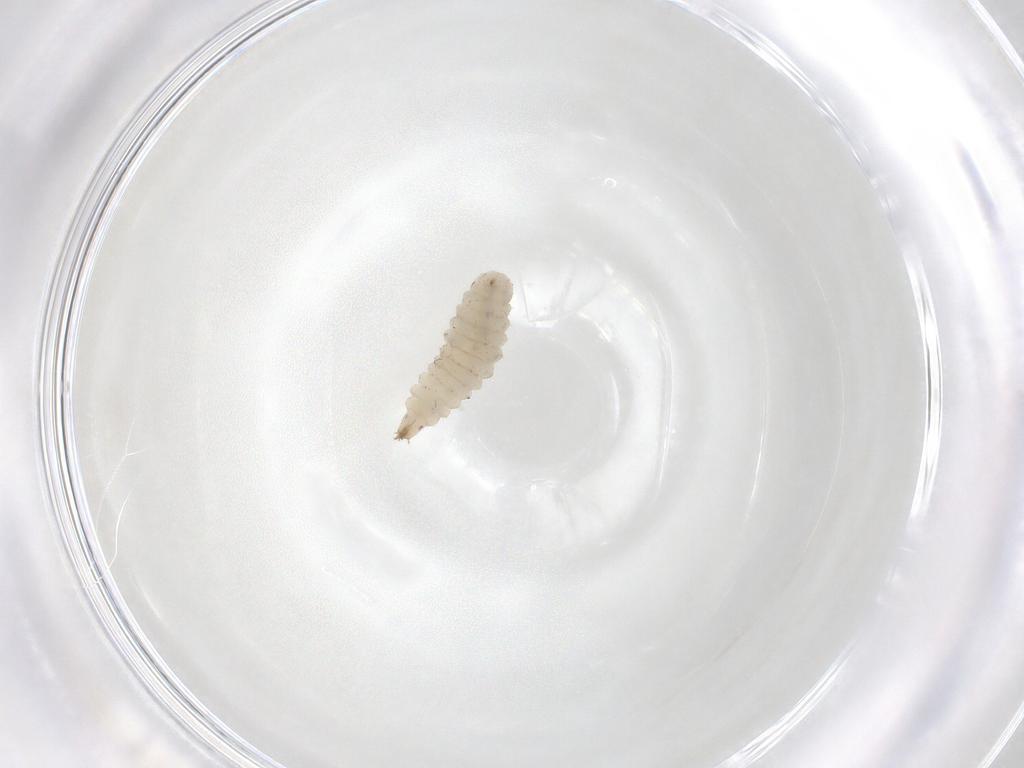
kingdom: Animalia
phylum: Arthropoda
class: Insecta
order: Diptera
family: Stratiomyidae
